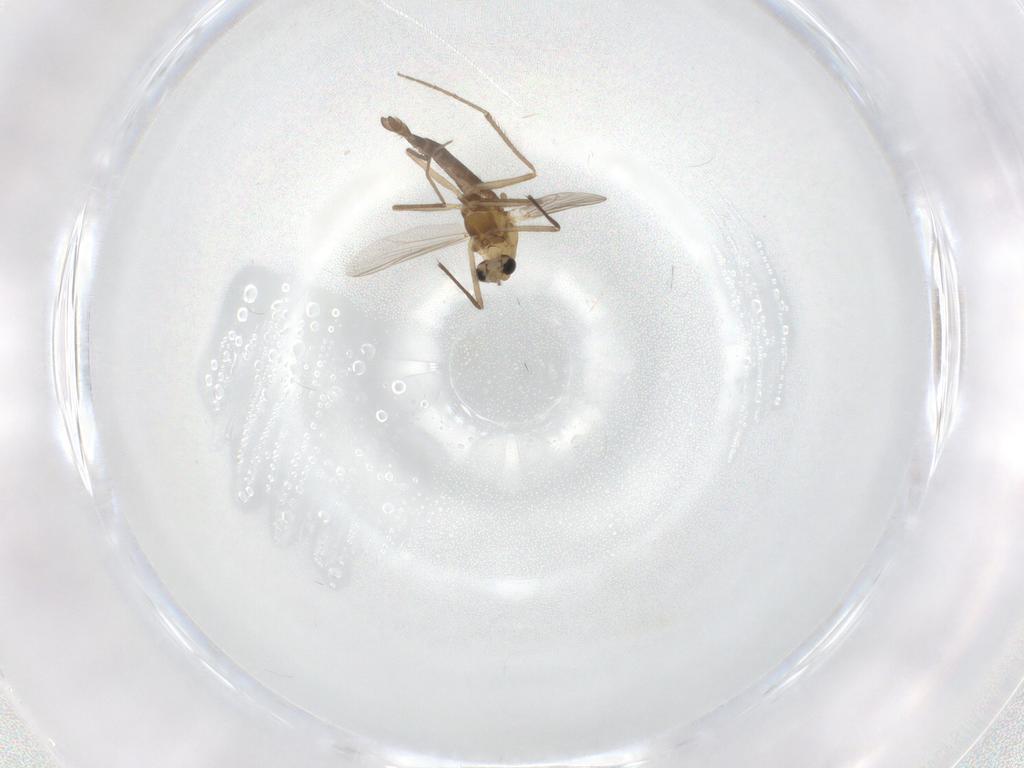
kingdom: Animalia
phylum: Arthropoda
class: Insecta
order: Diptera
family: Chironomidae
